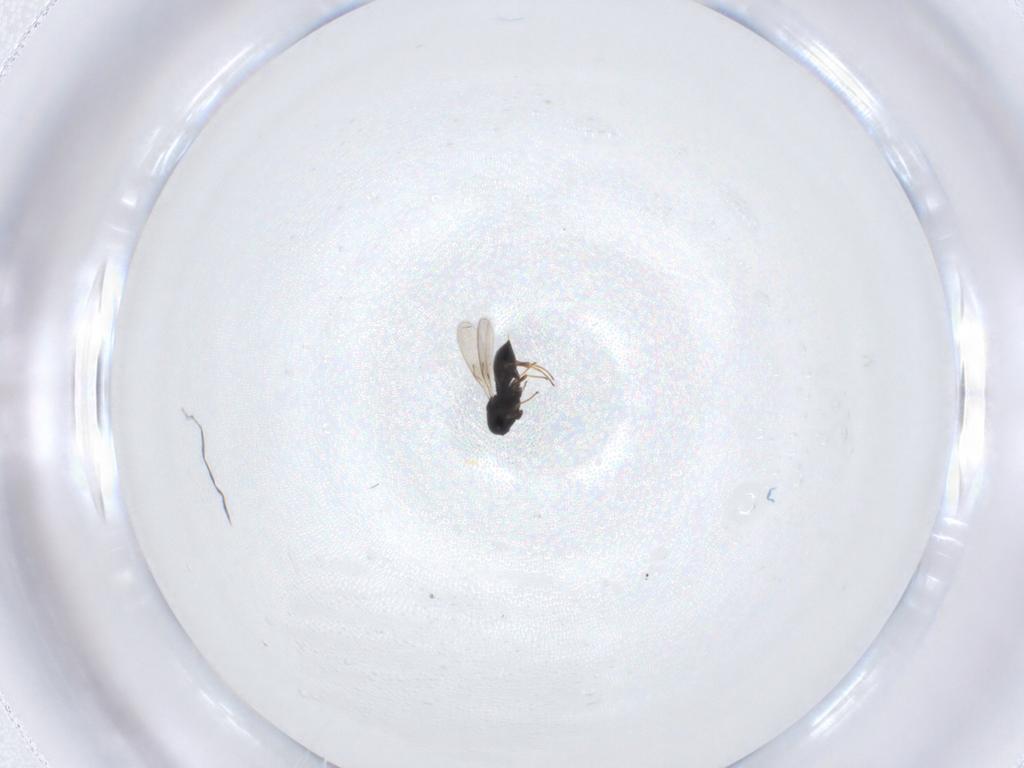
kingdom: Animalia
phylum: Arthropoda
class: Insecta
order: Hymenoptera
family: Scelionidae
